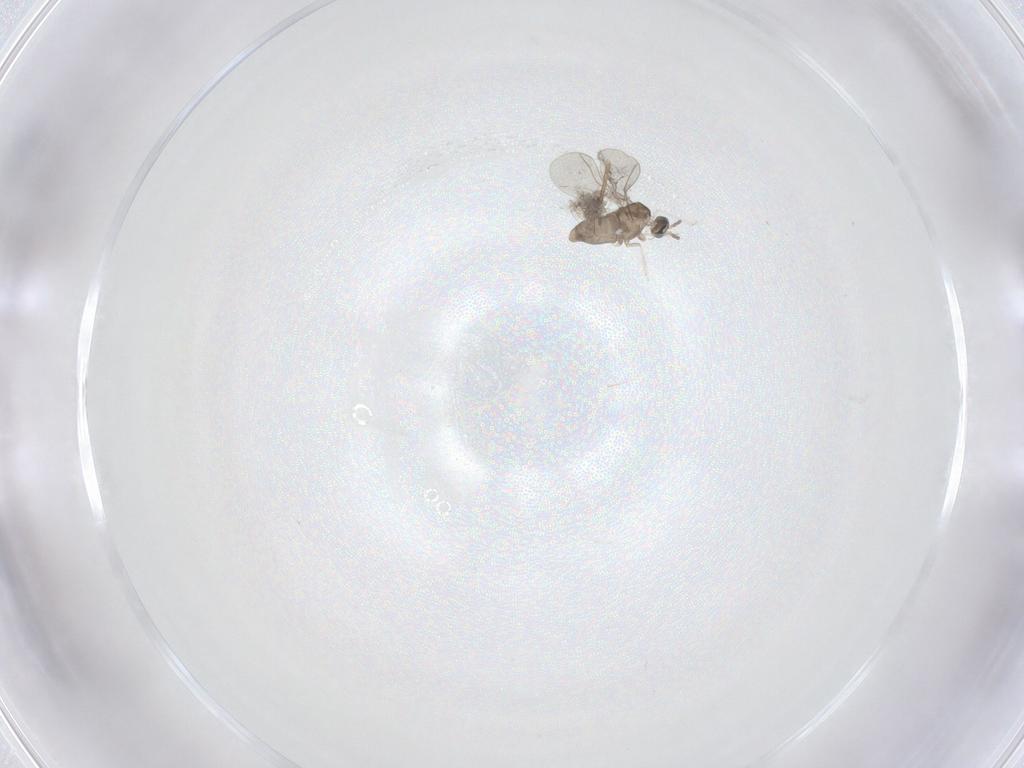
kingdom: Animalia
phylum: Arthropoda
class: Insecta
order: Diptera
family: Cecidomyiidae
